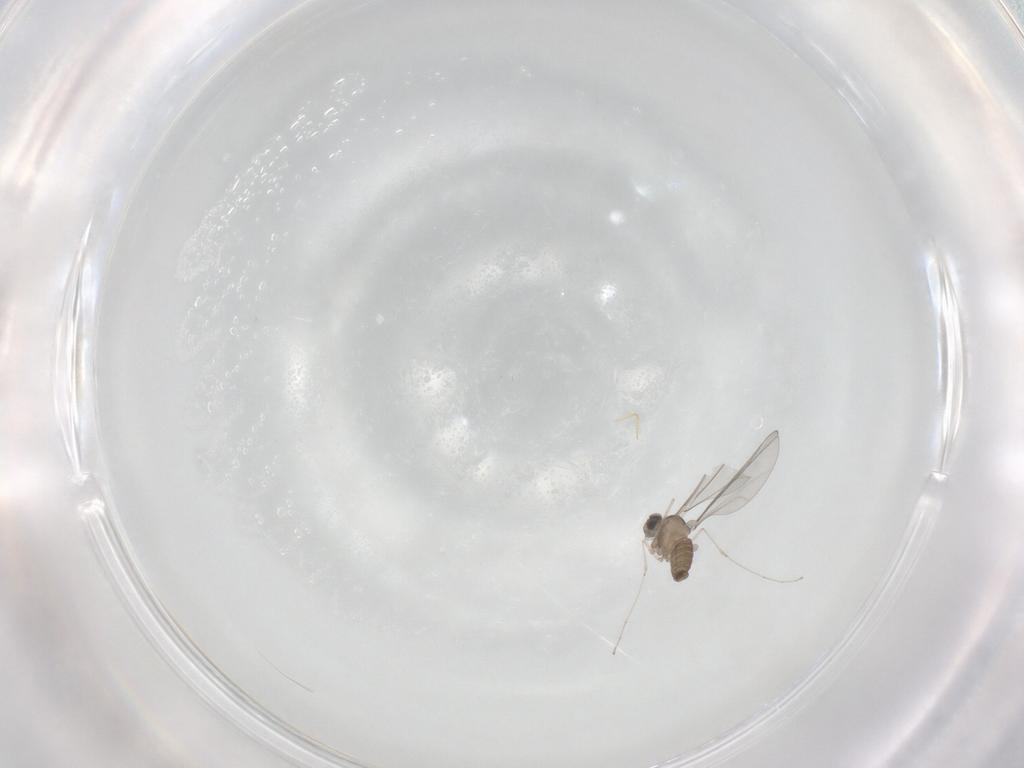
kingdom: Animalia
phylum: Arthropoda
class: Insecta
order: Diptera
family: Cecidomyiidae
